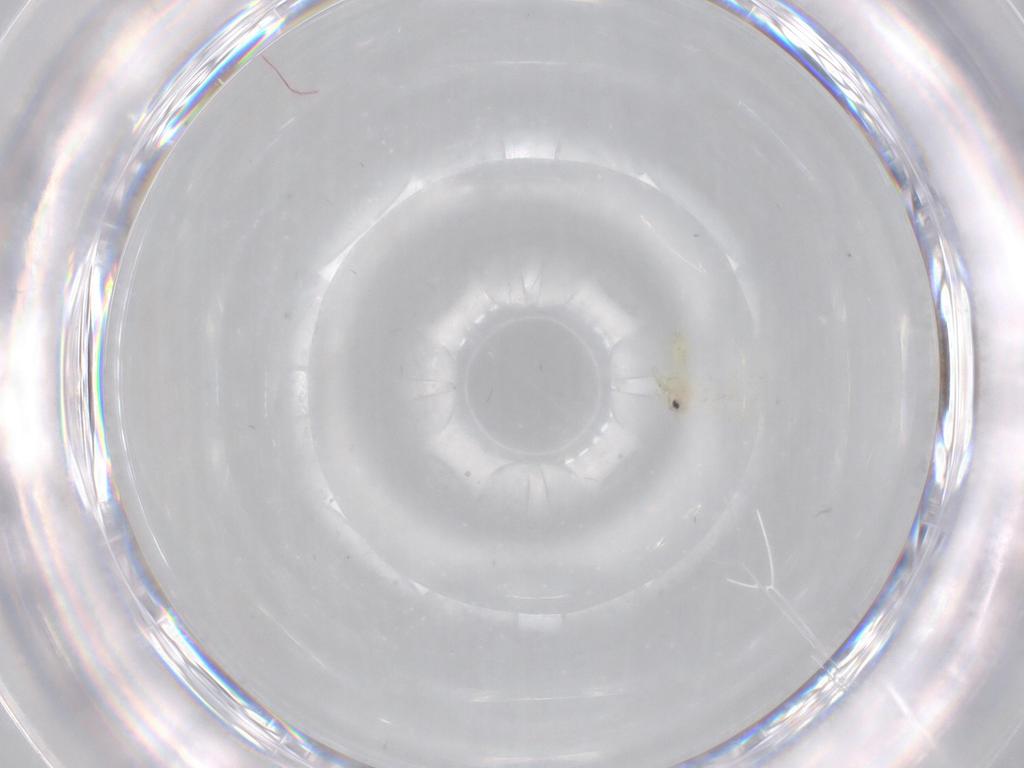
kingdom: Animalia
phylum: Arthropoda
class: Insecta
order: Hemiptera
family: Aleyrodidae
